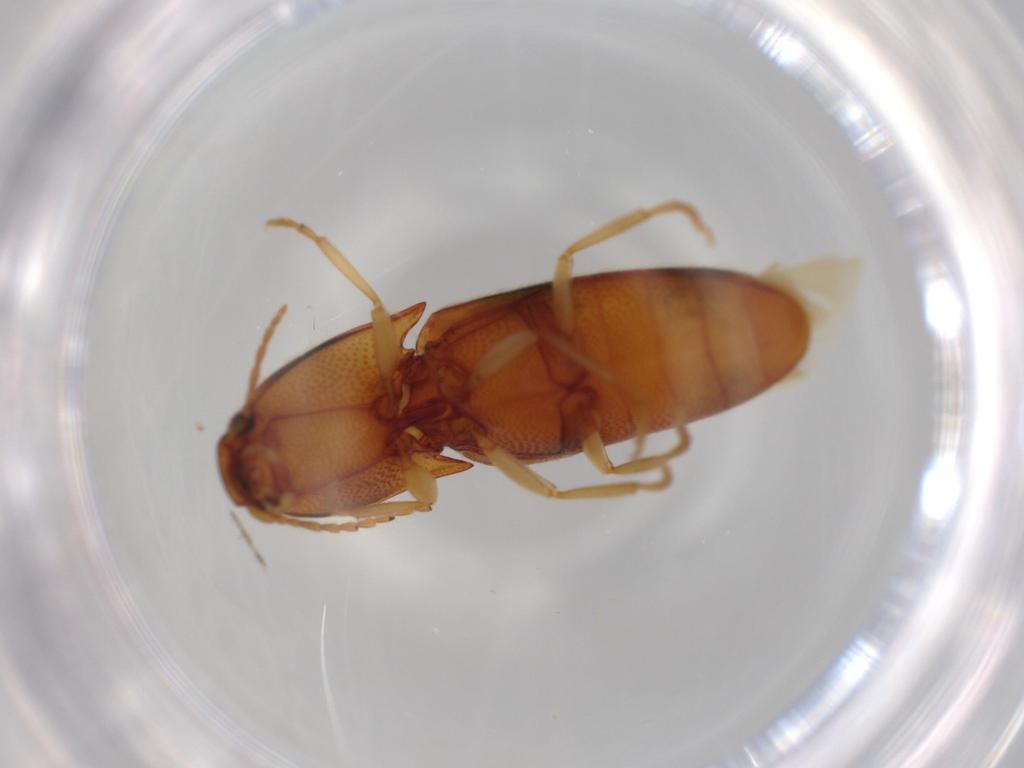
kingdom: Animalia
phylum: Arthropoda
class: Insecta
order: Coleoptera
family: Elateridae
